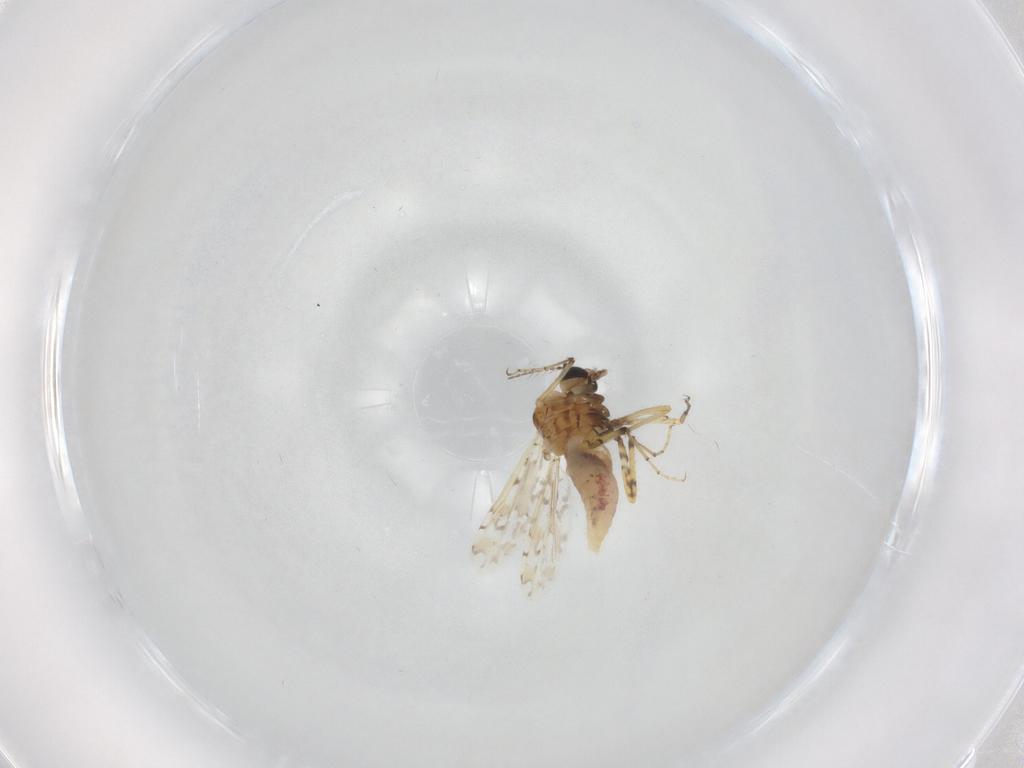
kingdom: Animalia
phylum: Arthropoda
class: Insecta
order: Diptera
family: Ceratopogonidae
